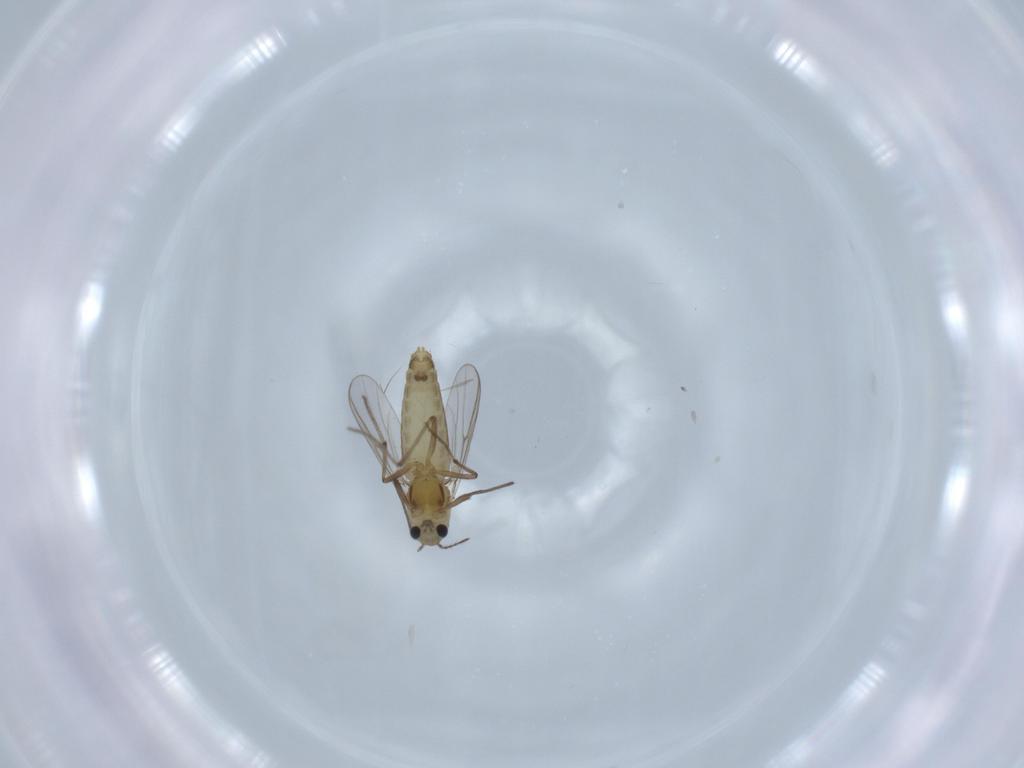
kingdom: Animalia
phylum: Arthropoda
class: Insecta
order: Diptera
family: Chironomidae
